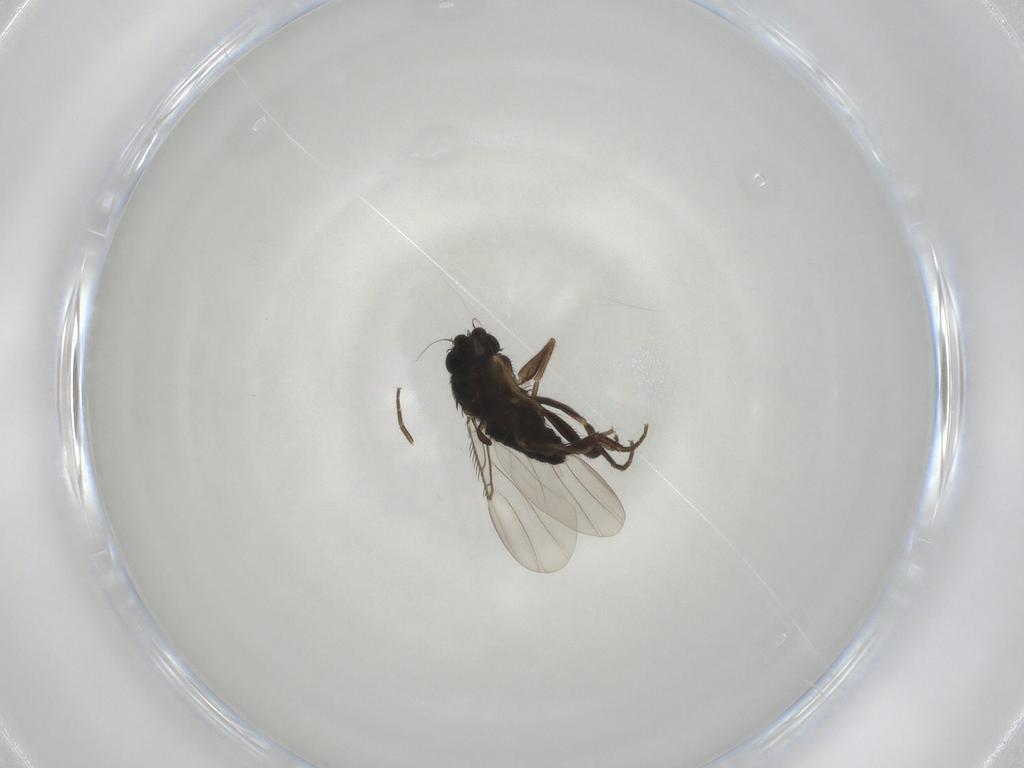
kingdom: Animalia
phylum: Arthropoda
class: Insecta
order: Diptera
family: Phoridae
